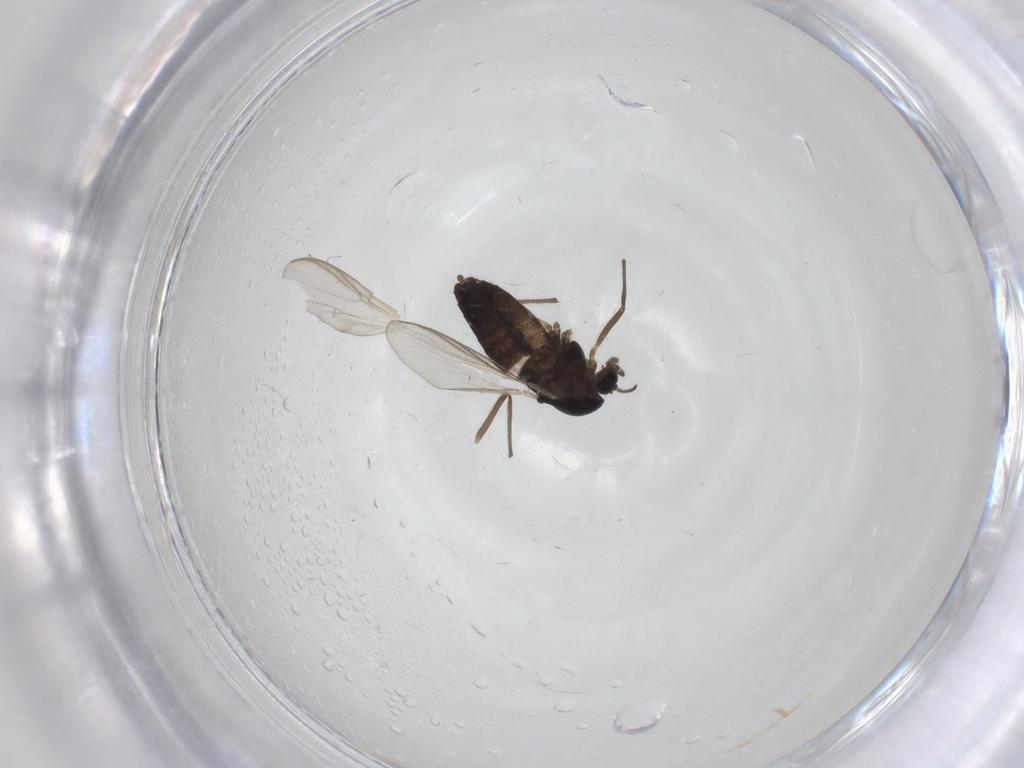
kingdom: Animalia
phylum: Arthropoda
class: Insecta
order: Diptera
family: Chironomidae
